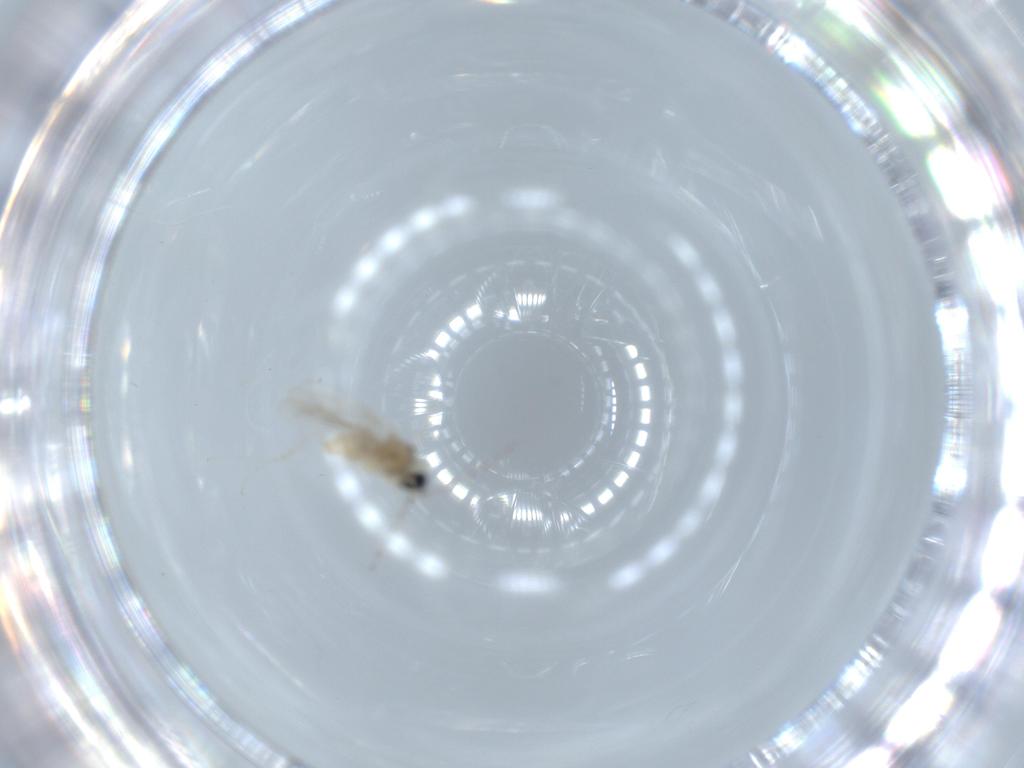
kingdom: Animalia
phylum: Arthropoda
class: Insecta
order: Diptera
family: Cecidomyiidae
